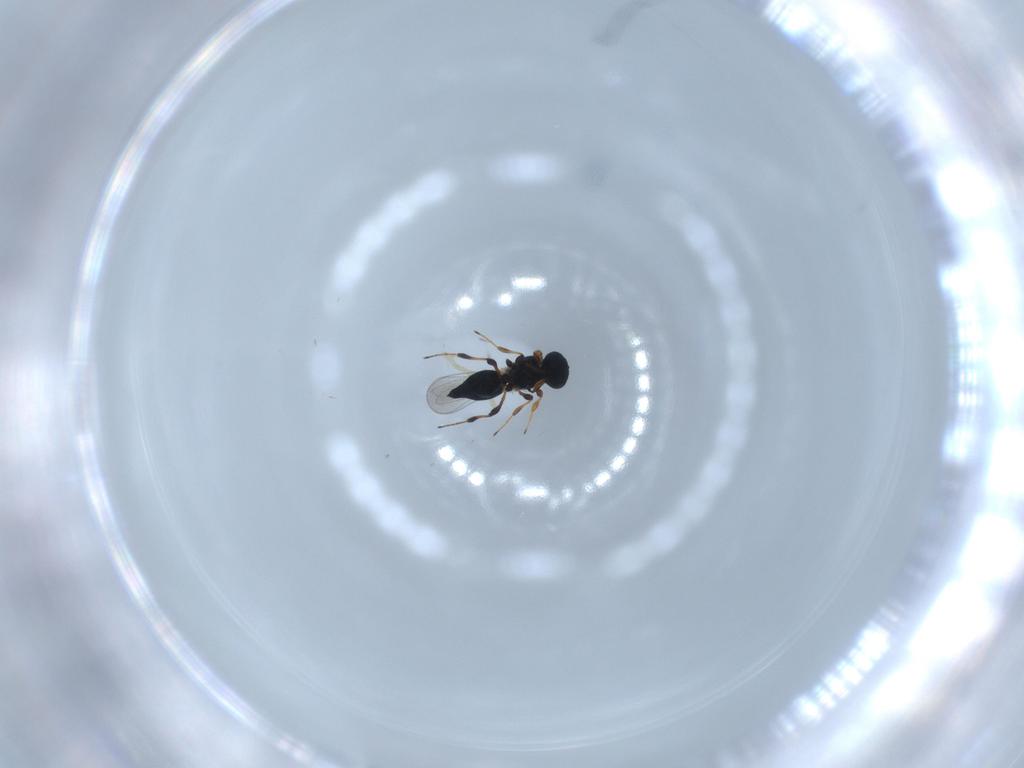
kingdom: Animalia
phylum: Arthropoda
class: Insecta
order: Hymenoptera
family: Platygastridae
